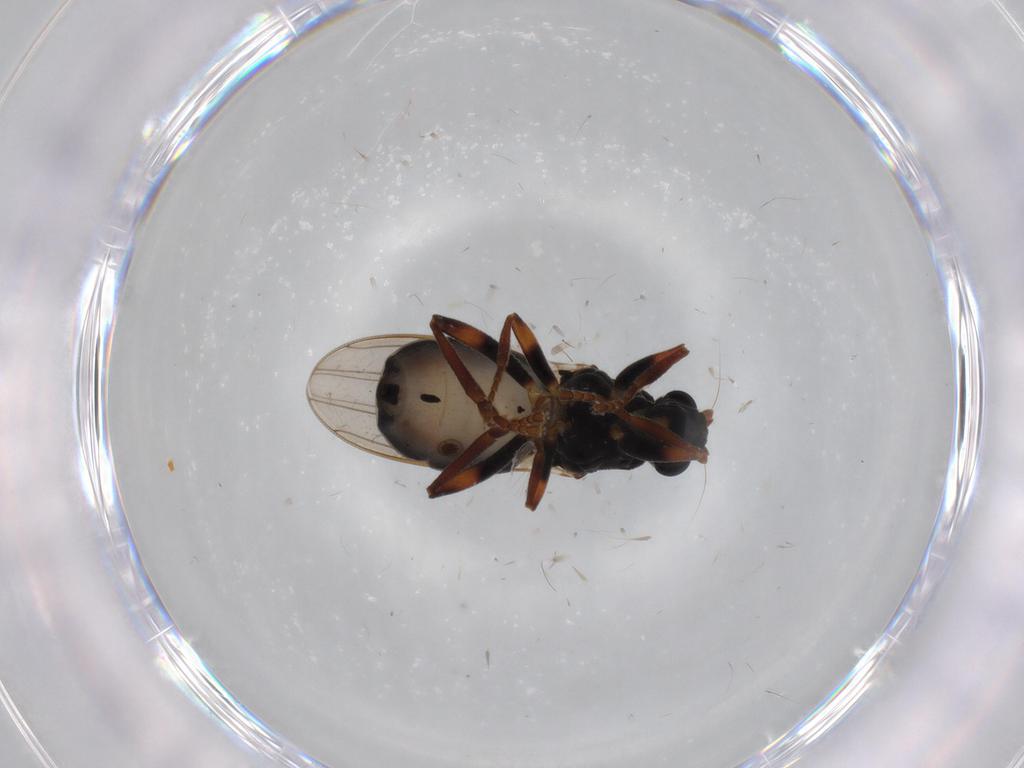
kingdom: Animalia
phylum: Arthropoda
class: Insecta
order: Diptera
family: Sphaeroceridae
